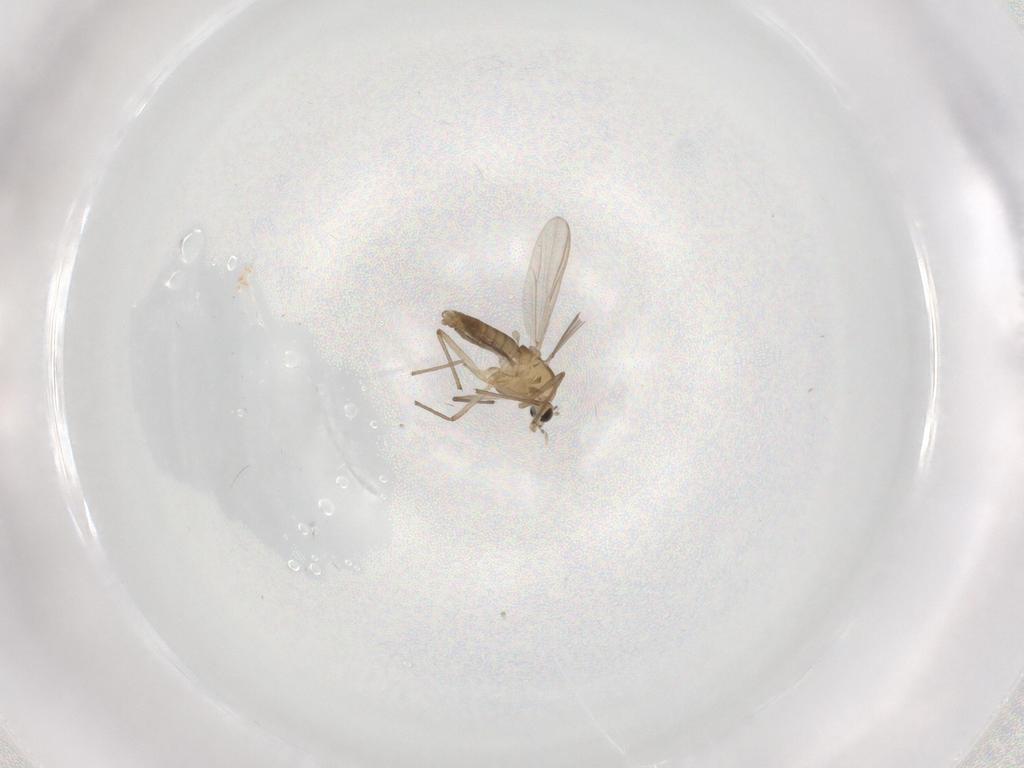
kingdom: Animalia
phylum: Arthropoda
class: Insecta
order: Diptera
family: Chironomidae
